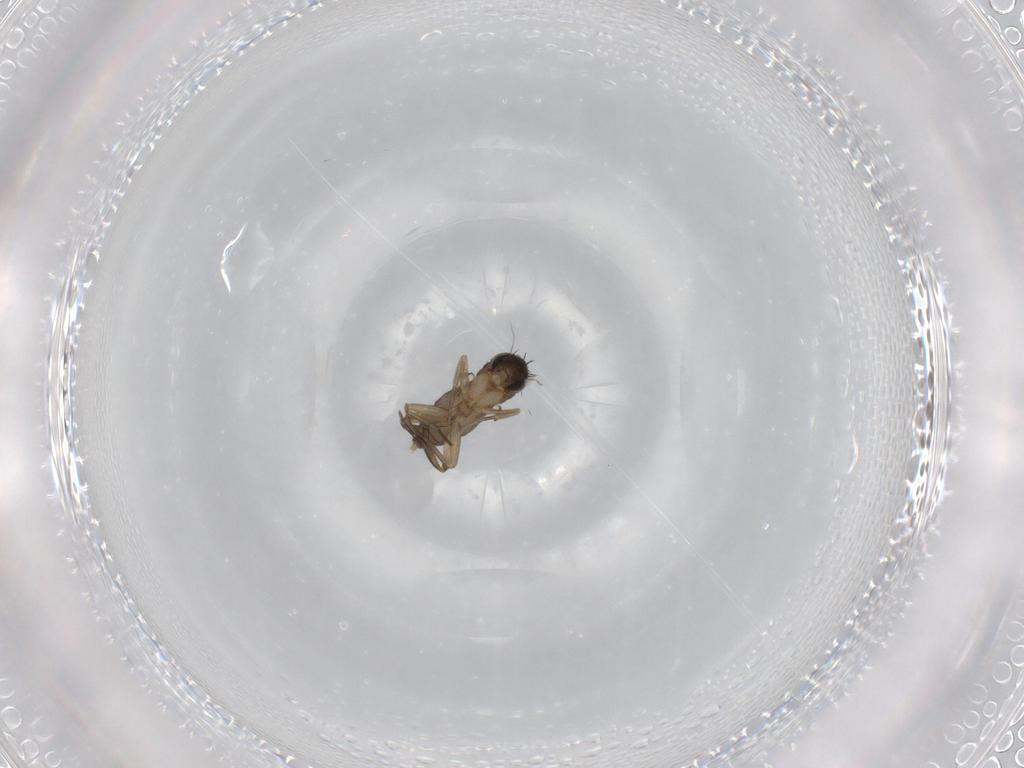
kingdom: Animalia
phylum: Arthropoda
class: Insecta
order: Diptera
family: Phoridae
